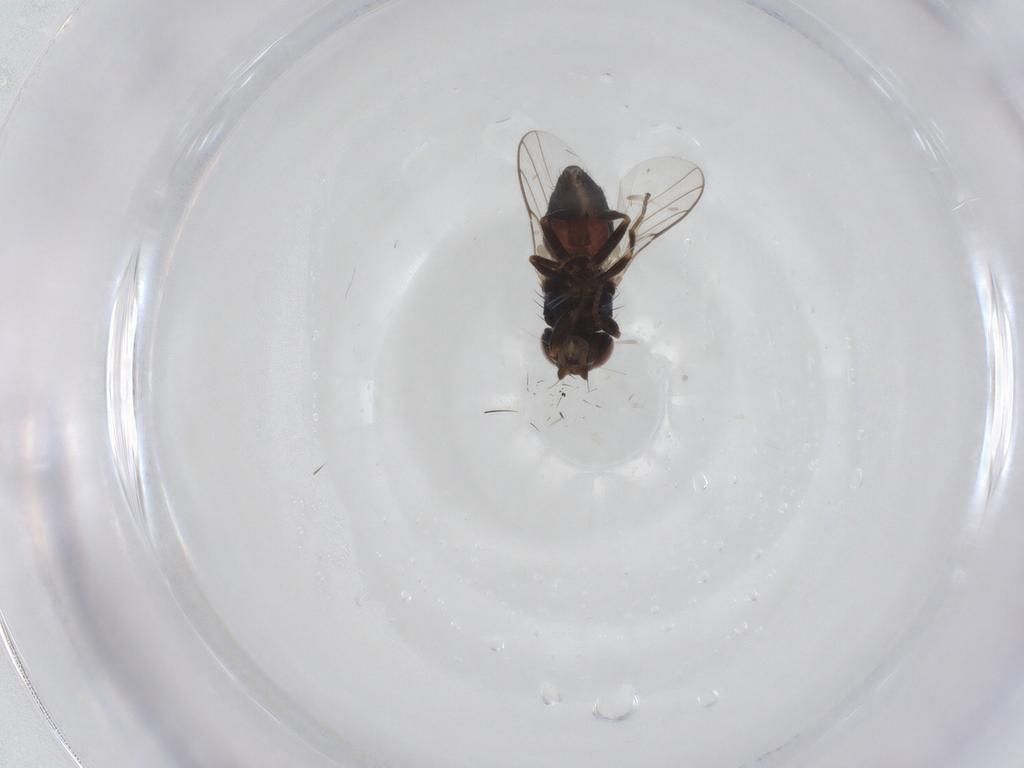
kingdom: Animalia
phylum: Arthropoda
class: Insecta
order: Diptera
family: Chloropidae
